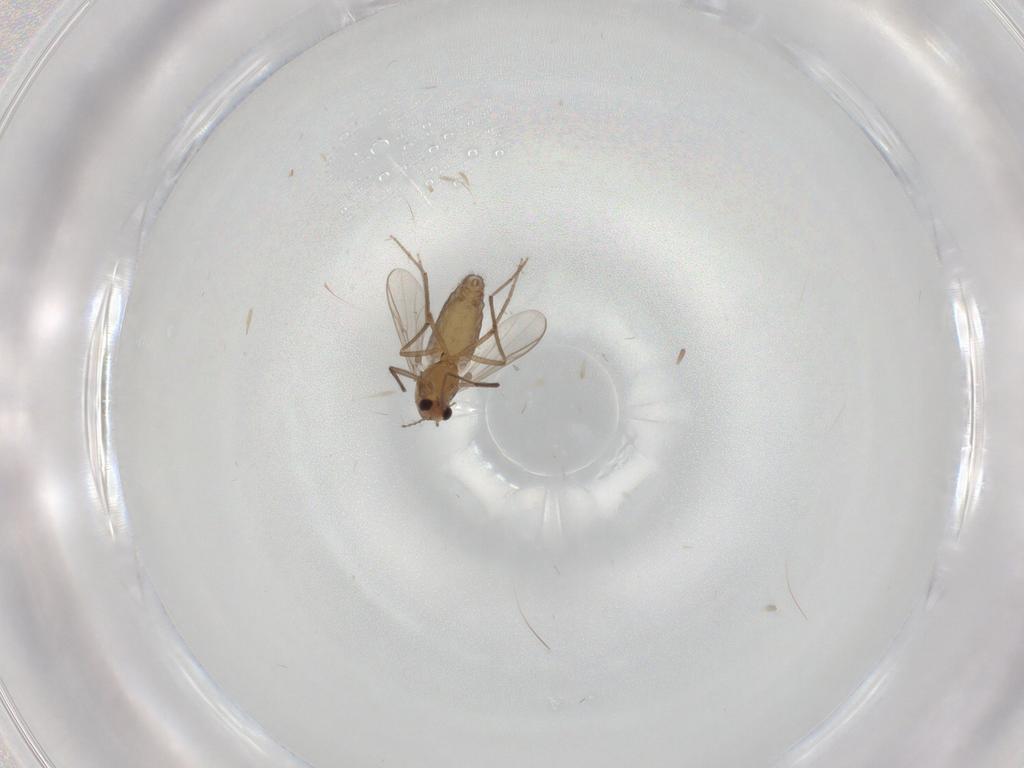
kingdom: Animalia
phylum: Arthropoda
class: Insecta
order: Diptera
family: Chironomidae
